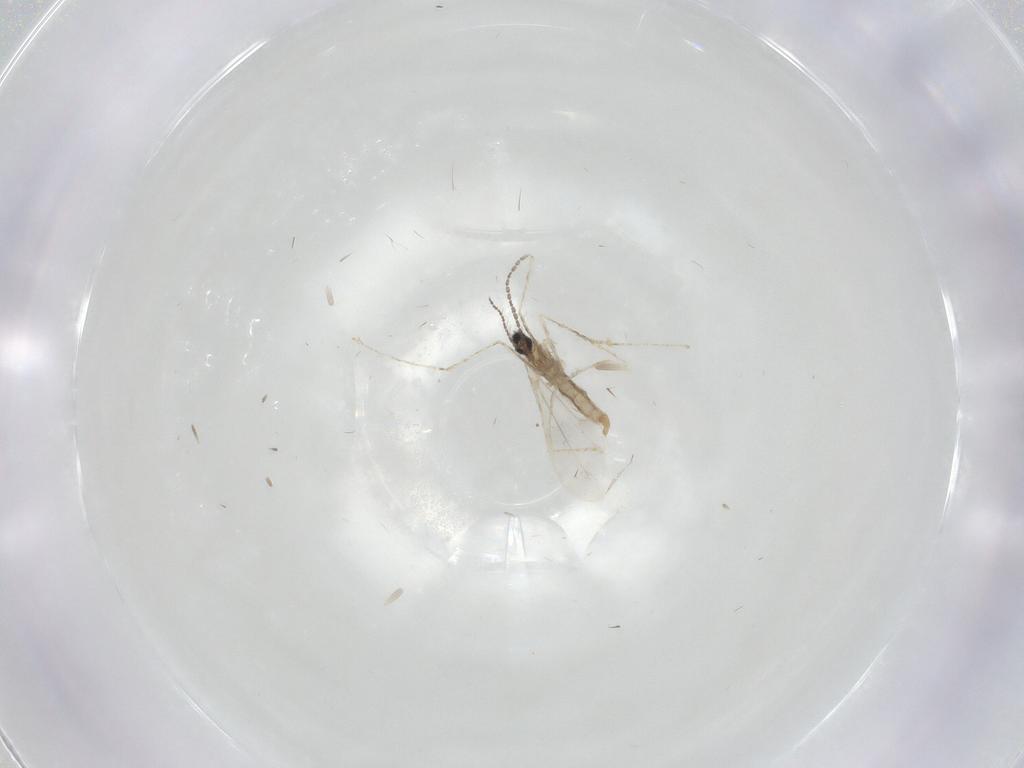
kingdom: Animalia
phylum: Arthropoda
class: Insecta
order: Diptera
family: Cecidomyiidae
